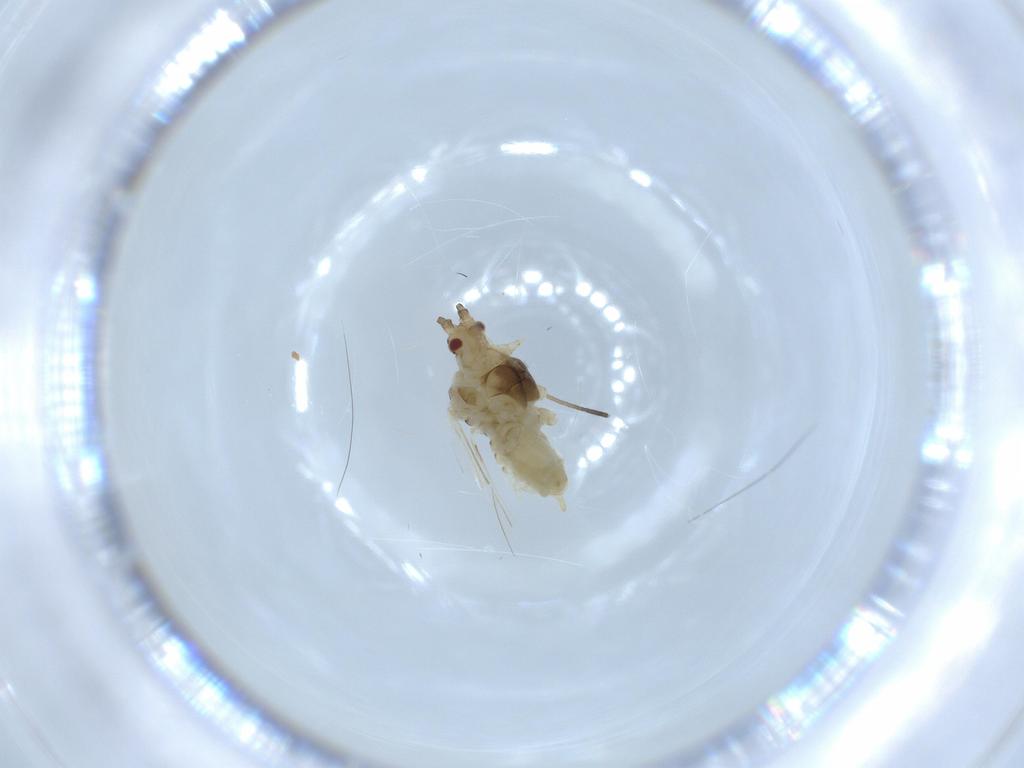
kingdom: Animalia
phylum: Arthropoda
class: Insecta
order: Hemiptera
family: Aphididae
